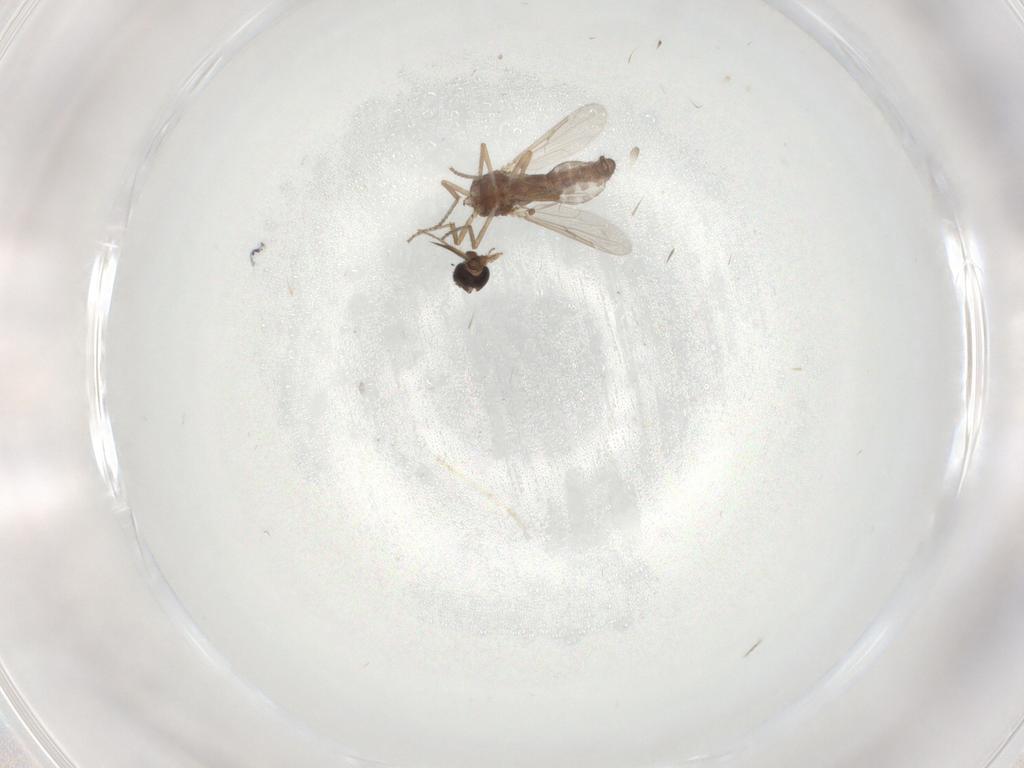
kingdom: Animalia
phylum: Arthropoda
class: Insecta
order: Diptera
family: Ceratopogonidae
